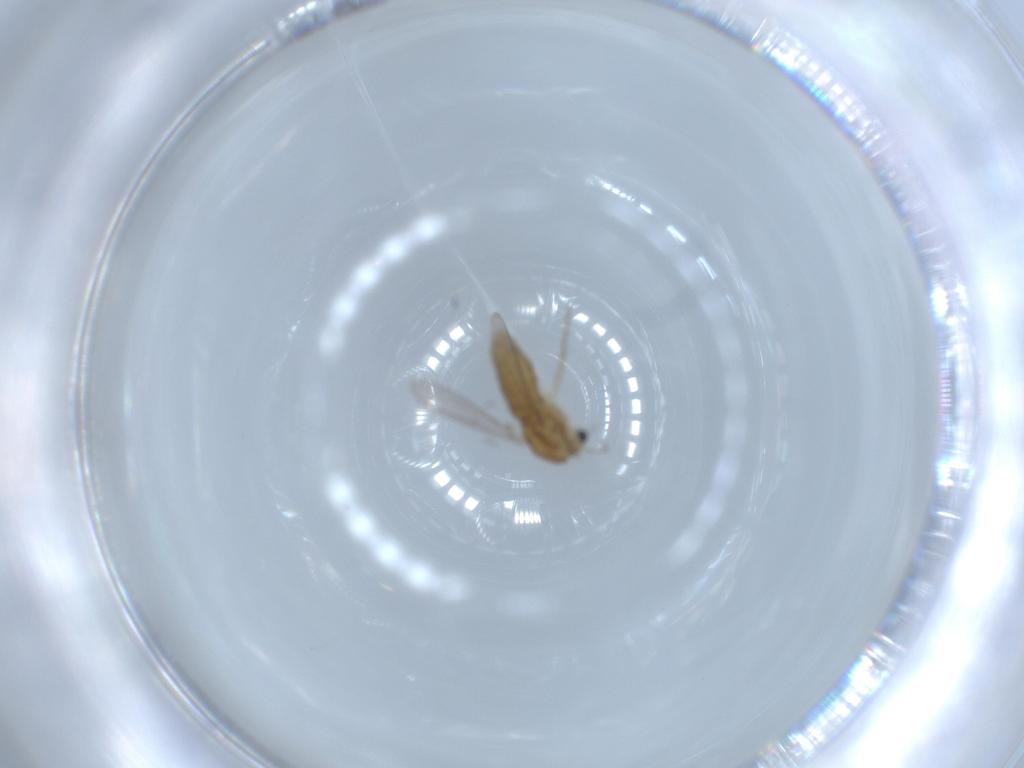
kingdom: Animalia
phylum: Arthropoda
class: Insecta
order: Diptera
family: Chironomidae
